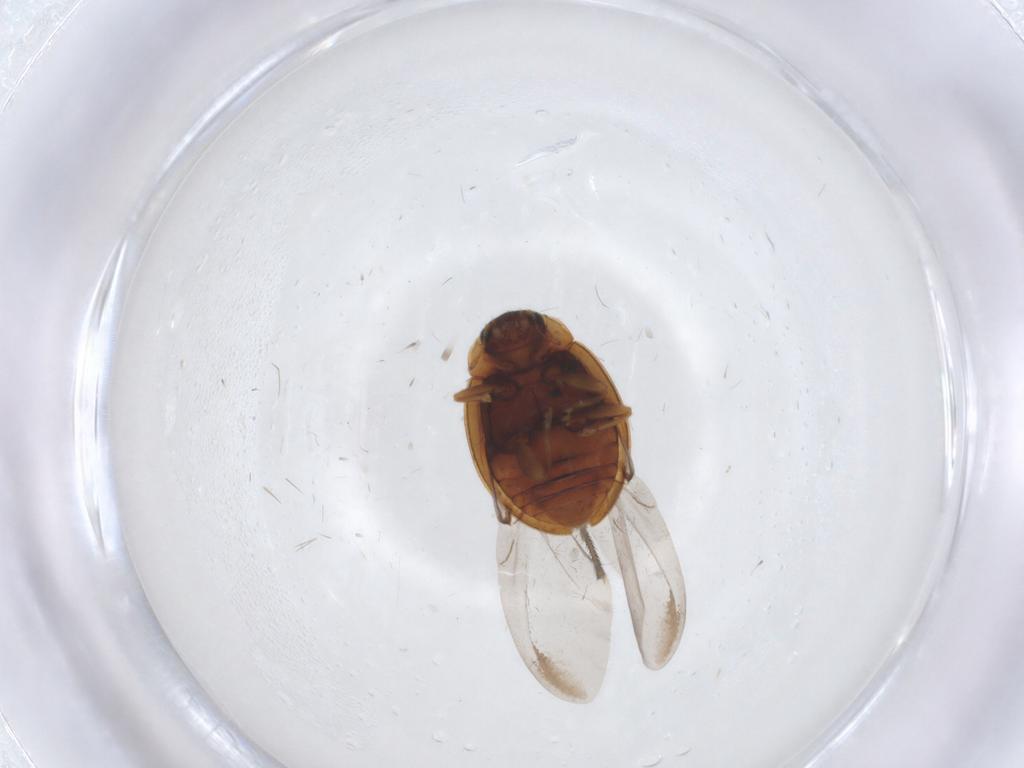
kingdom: Animalia
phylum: Arthropoda
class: Insecta
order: Coleoptera
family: Coccinellidae
